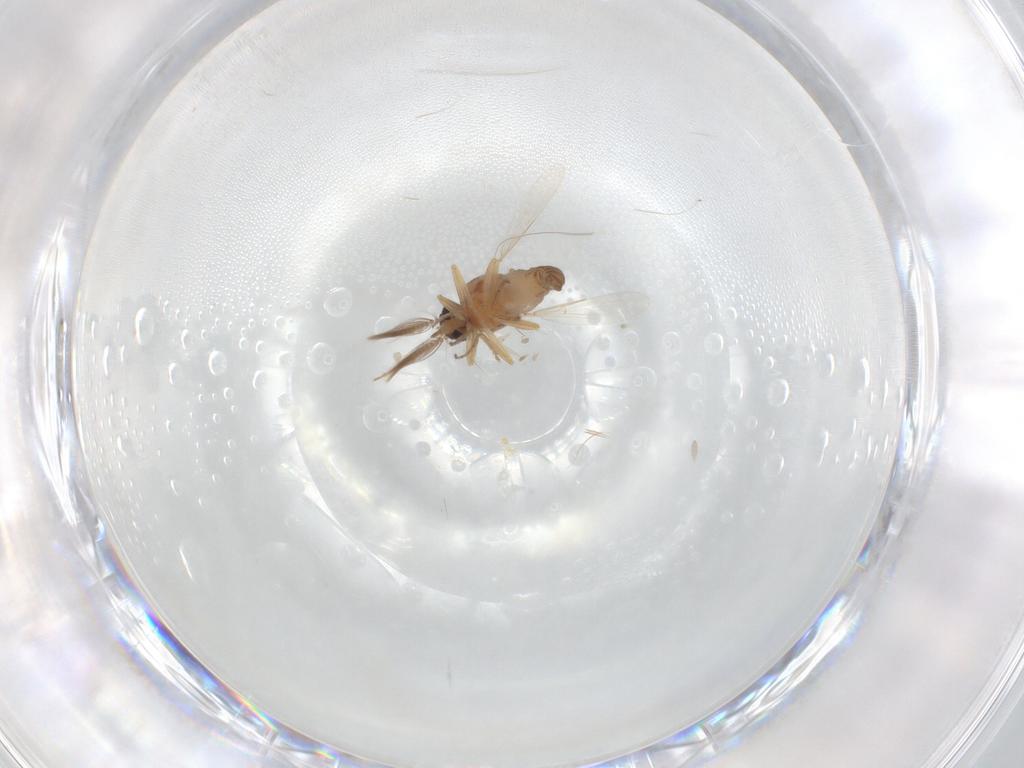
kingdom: Animalia
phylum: Arthropoda
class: Insecta
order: Diptera
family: Ceratopogonidae
